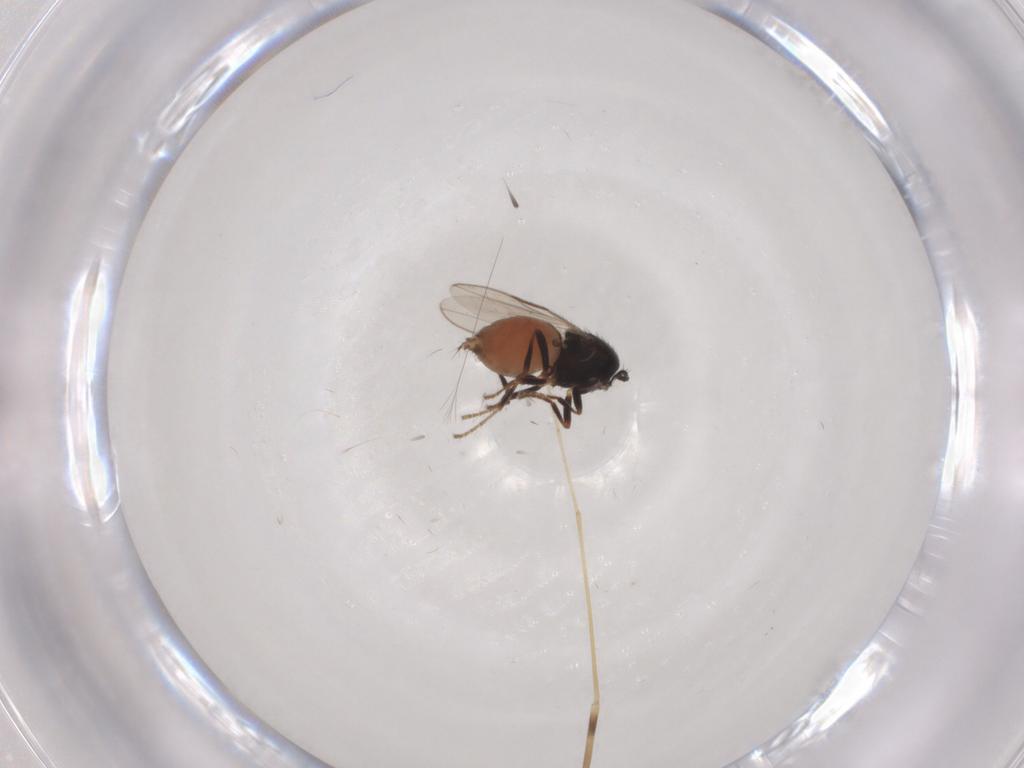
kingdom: Animalia
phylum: Arthropoda
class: Insecta
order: Diptera
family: Sphaeroceridae
